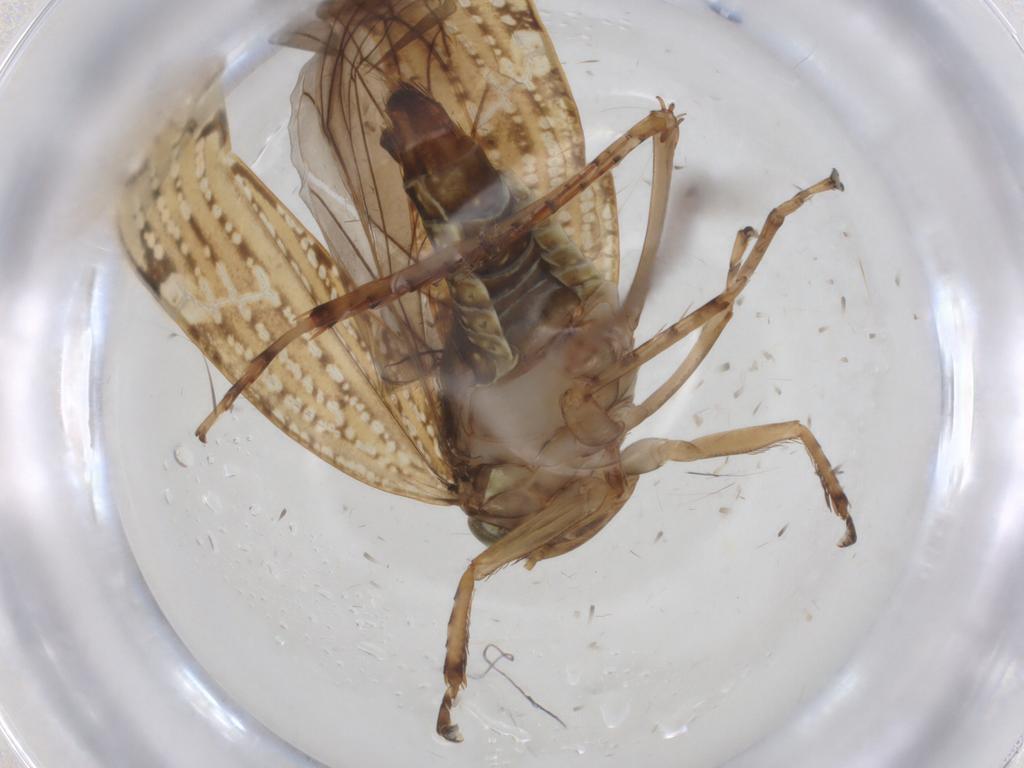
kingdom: Animalia
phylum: Arthropoda
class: Insecta
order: Hemiptera
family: Cicadellidae
